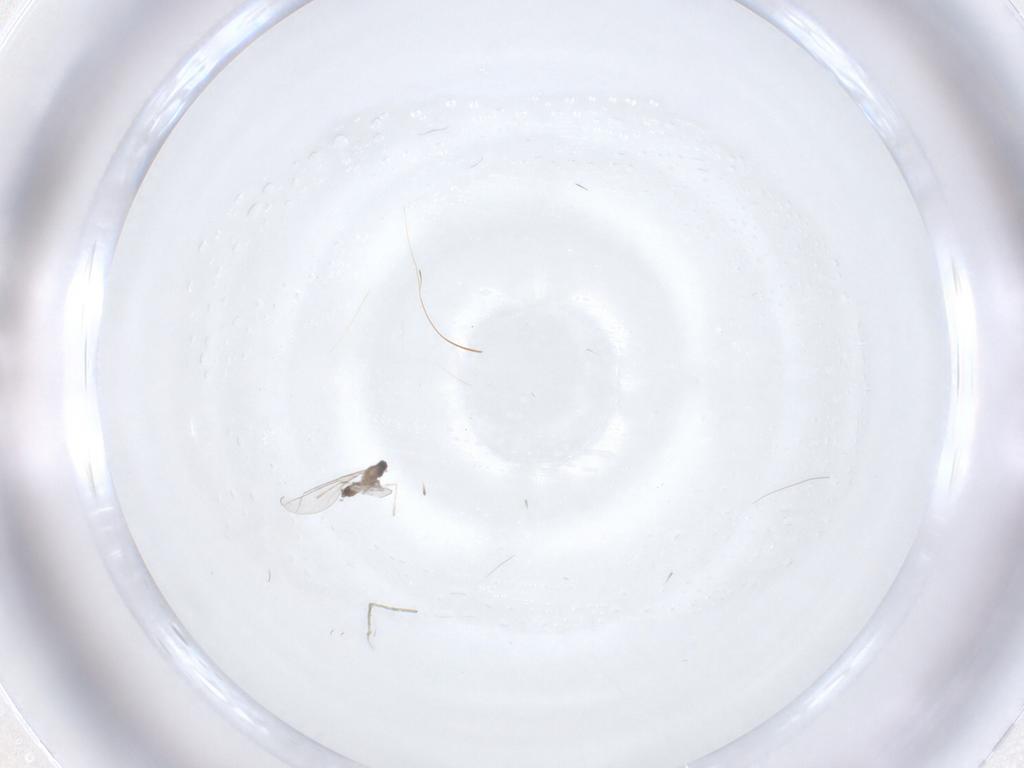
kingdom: Animalia
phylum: Arthropoda
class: Insecta
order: Diptera
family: Cecidomyiidae
